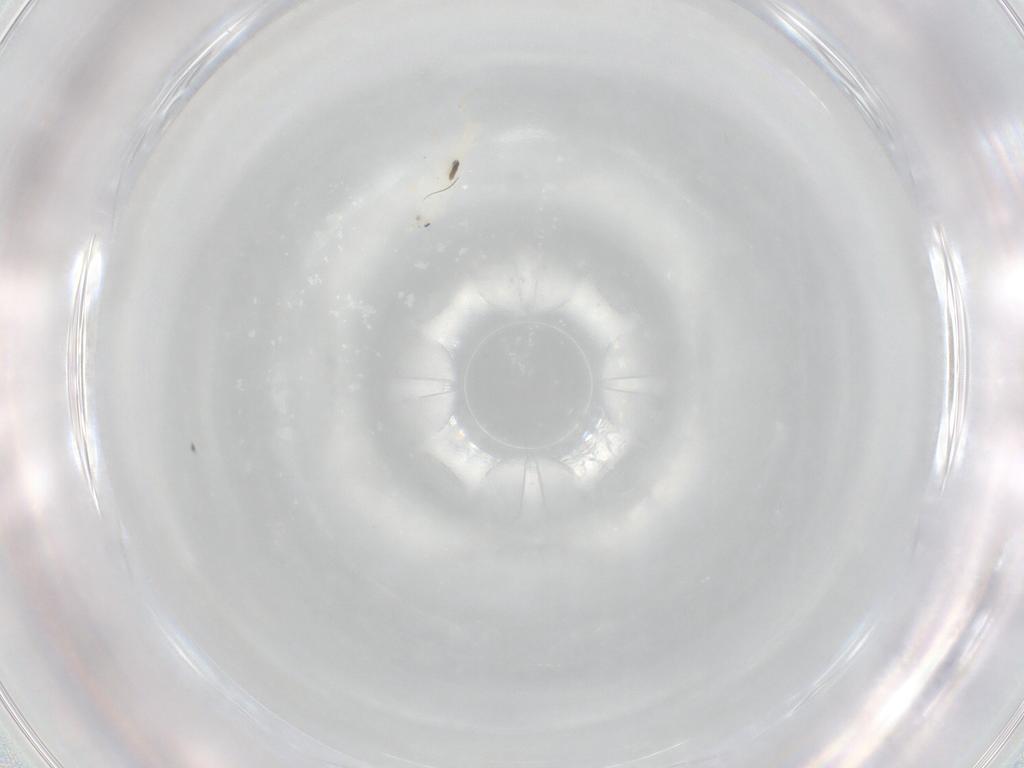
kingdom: Animalia
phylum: Arthropoda
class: Collembola
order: Entomobryomorpha
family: Entomobryidae
